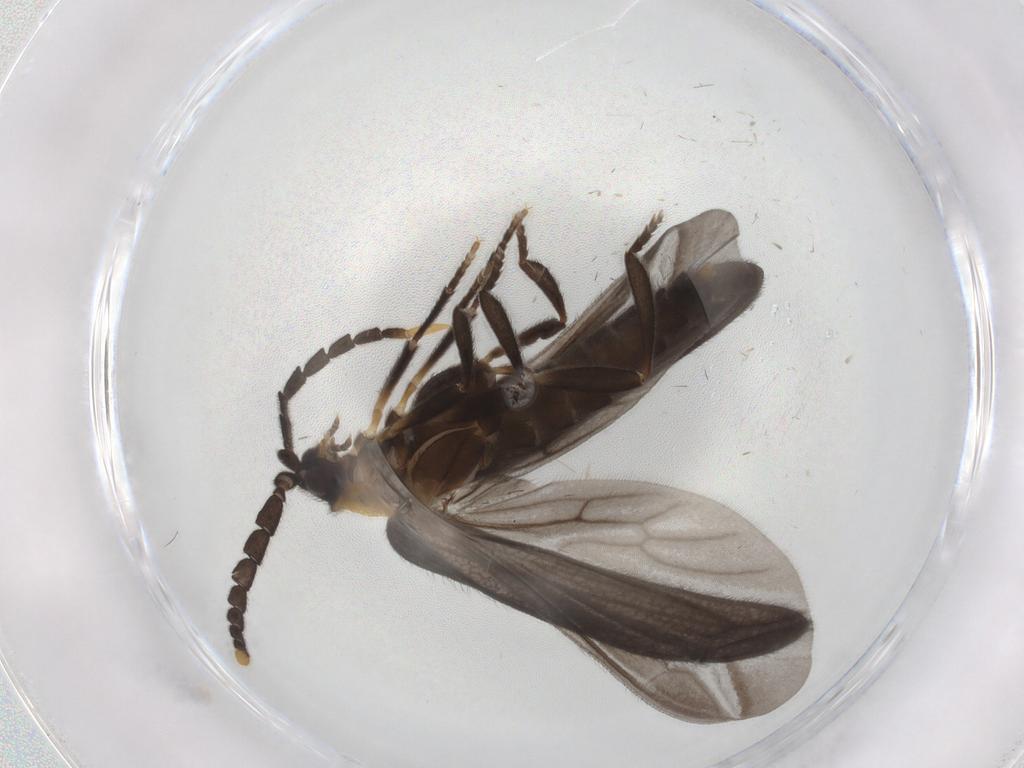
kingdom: Animalia
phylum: Arthropoda
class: Insecta
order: Coleoptera
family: Lycidae
